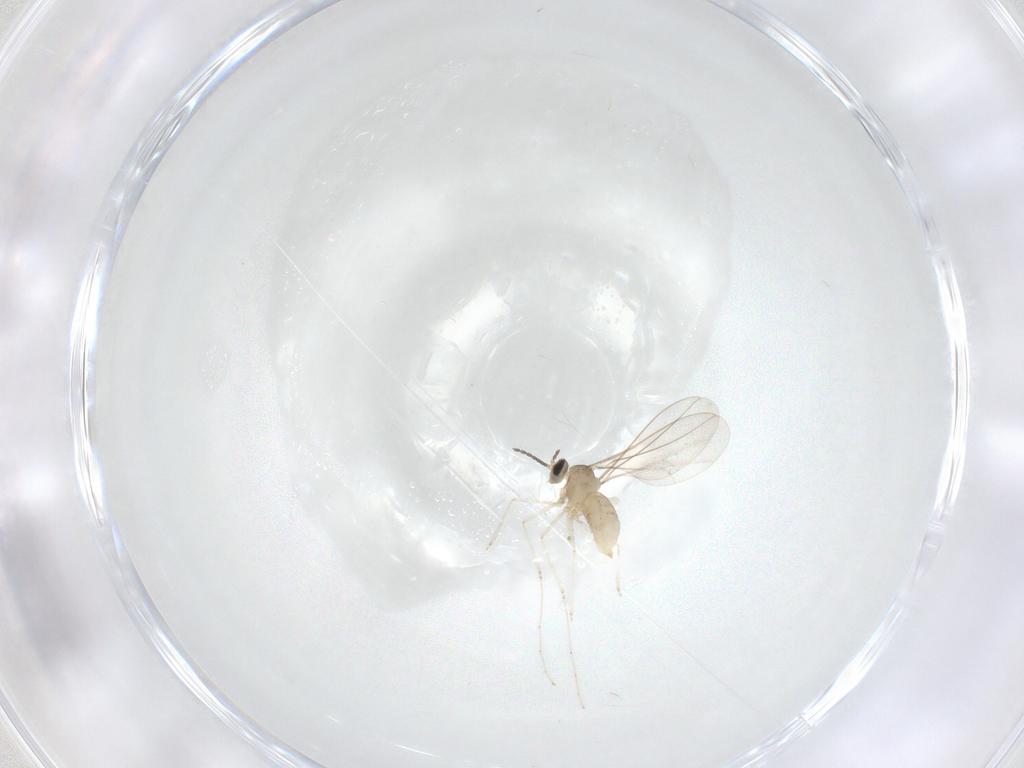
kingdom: Animalia
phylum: Arthropoda
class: Insecta
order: Diptera
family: Cecidomyiidae
